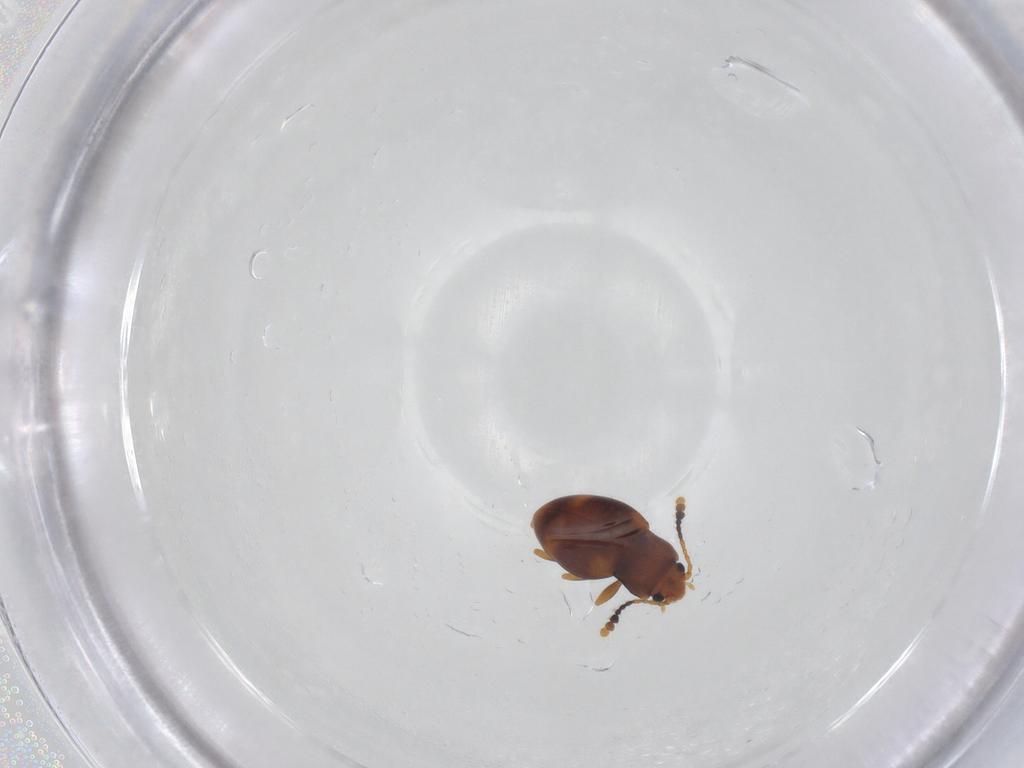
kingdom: Animalia
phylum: Arthropoda
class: Insecta
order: Coleoptera
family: Erotylidae
